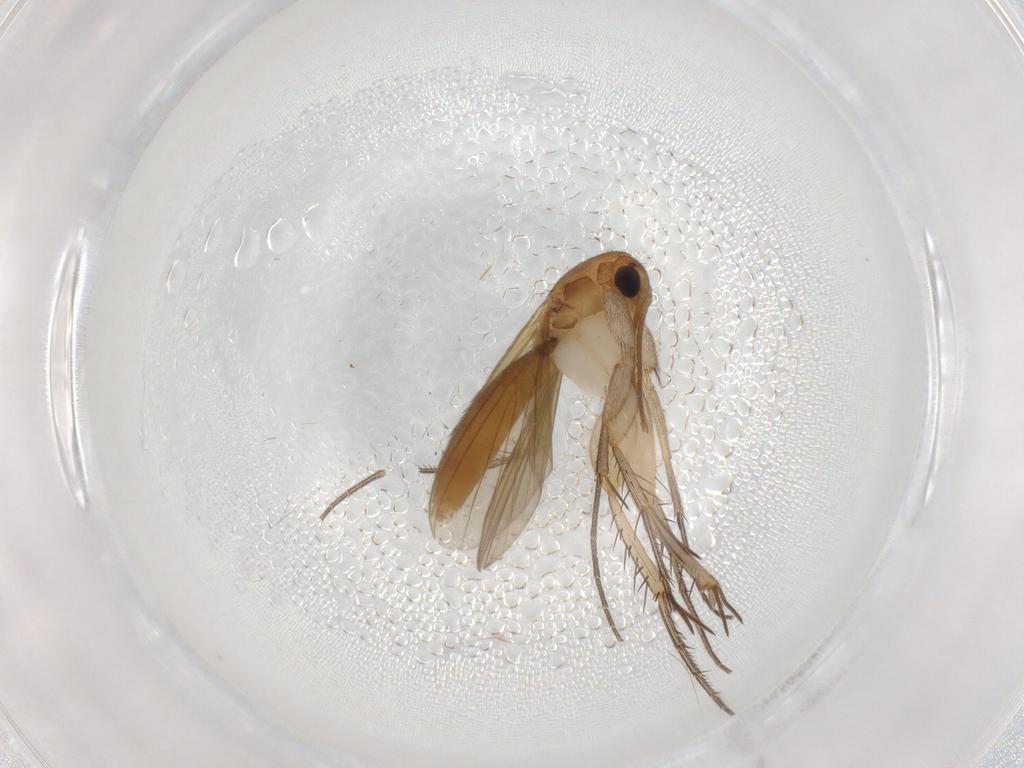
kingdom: Animalia
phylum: Arthropoda
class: Insecta
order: Diptera
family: Mycetophilidae
